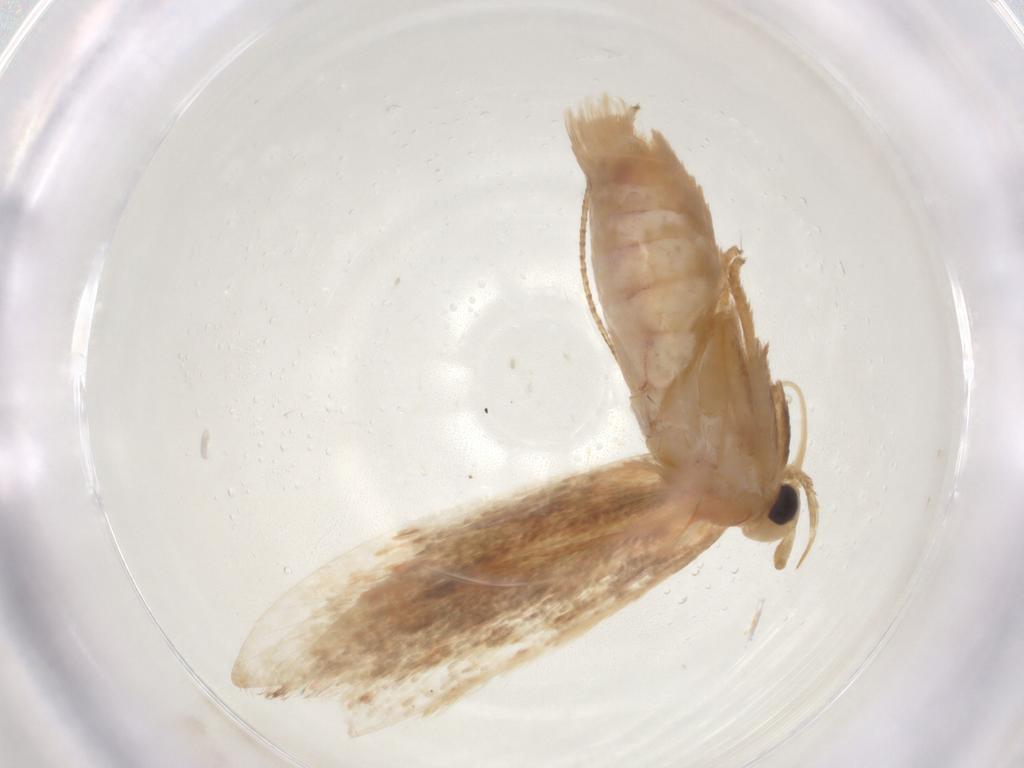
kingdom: Animalia
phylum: Arthropoda
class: Insecta
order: Lepidoptera
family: Geometridae
